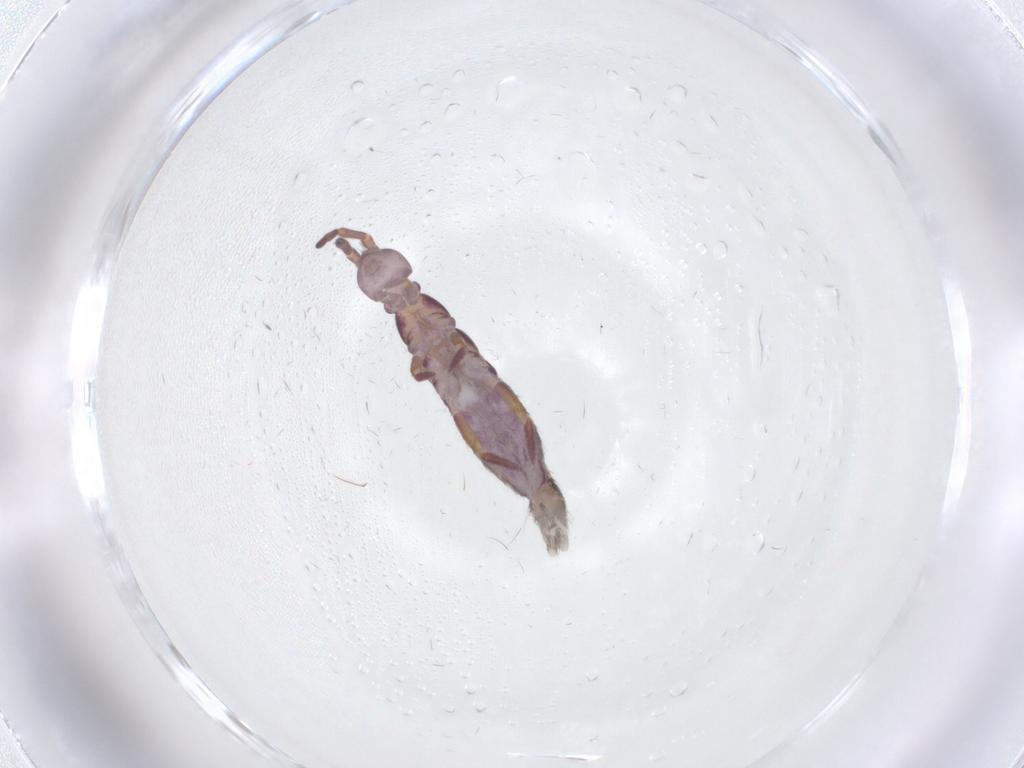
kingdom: Animalia
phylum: Arthropoda
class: Collembola
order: Entomobryomorpha
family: Isotomidae
